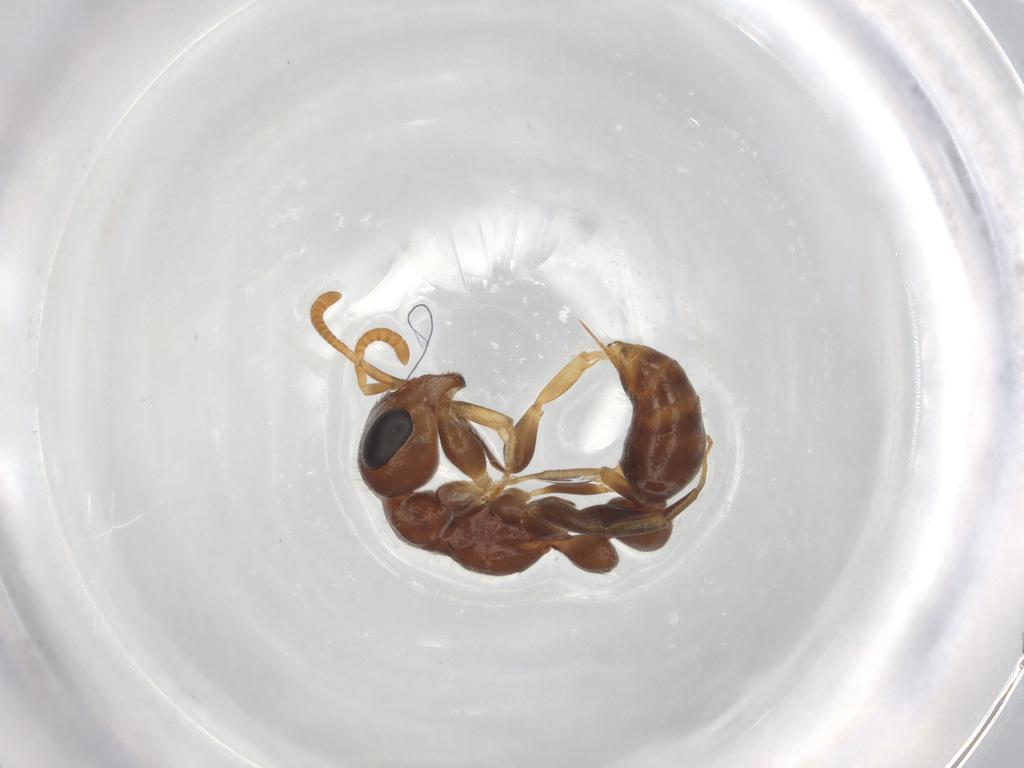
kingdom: Animalia
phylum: Arthropoda
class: Insecta
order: Hymenoptera
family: Formicidae
